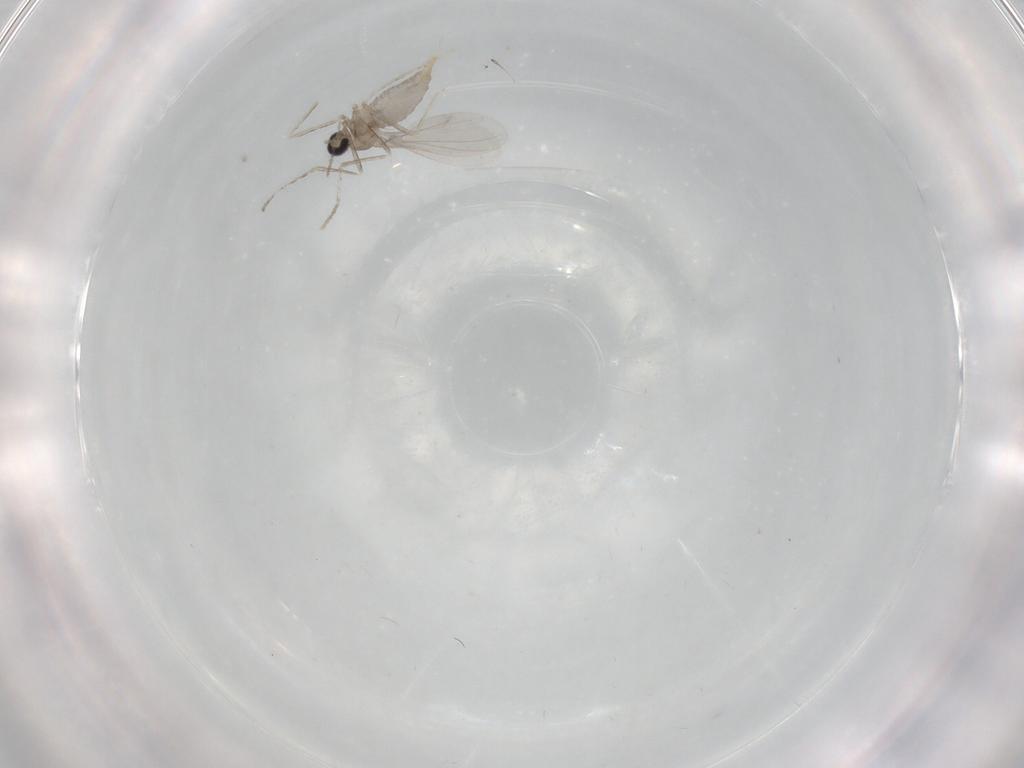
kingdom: Animalia
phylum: Arthropoda
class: Insecta
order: Diptera
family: Cecidomyiidae
